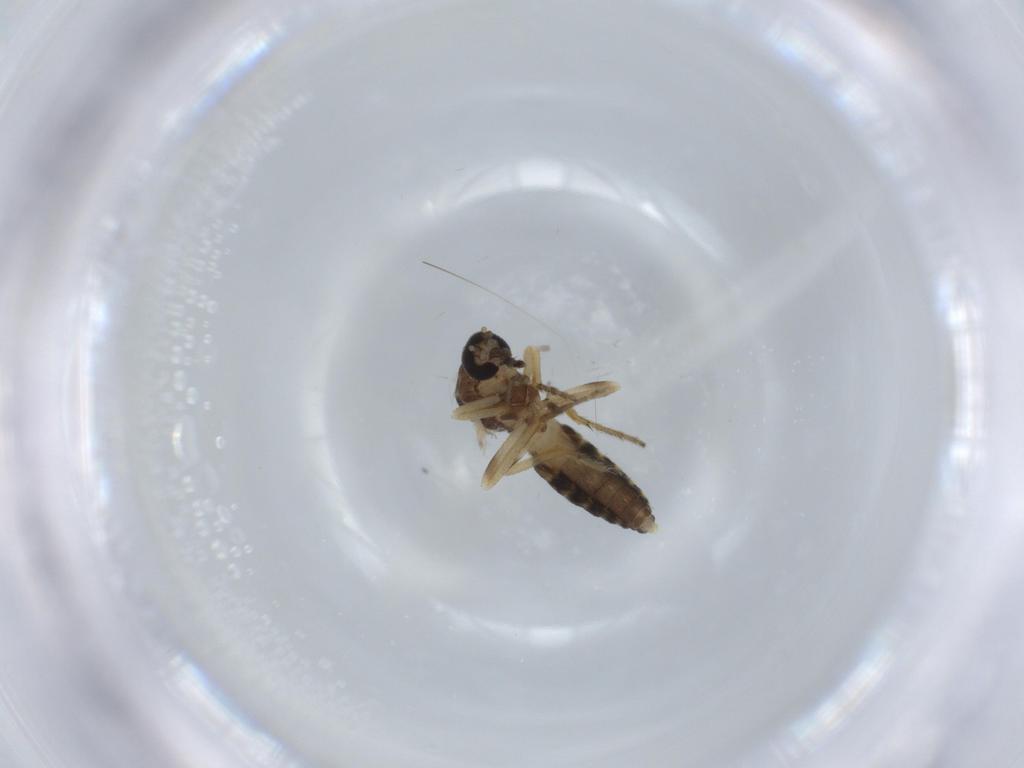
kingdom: Animalia
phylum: Arthropoda
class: Insecta
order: Diptera
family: Ceratopogonidae
